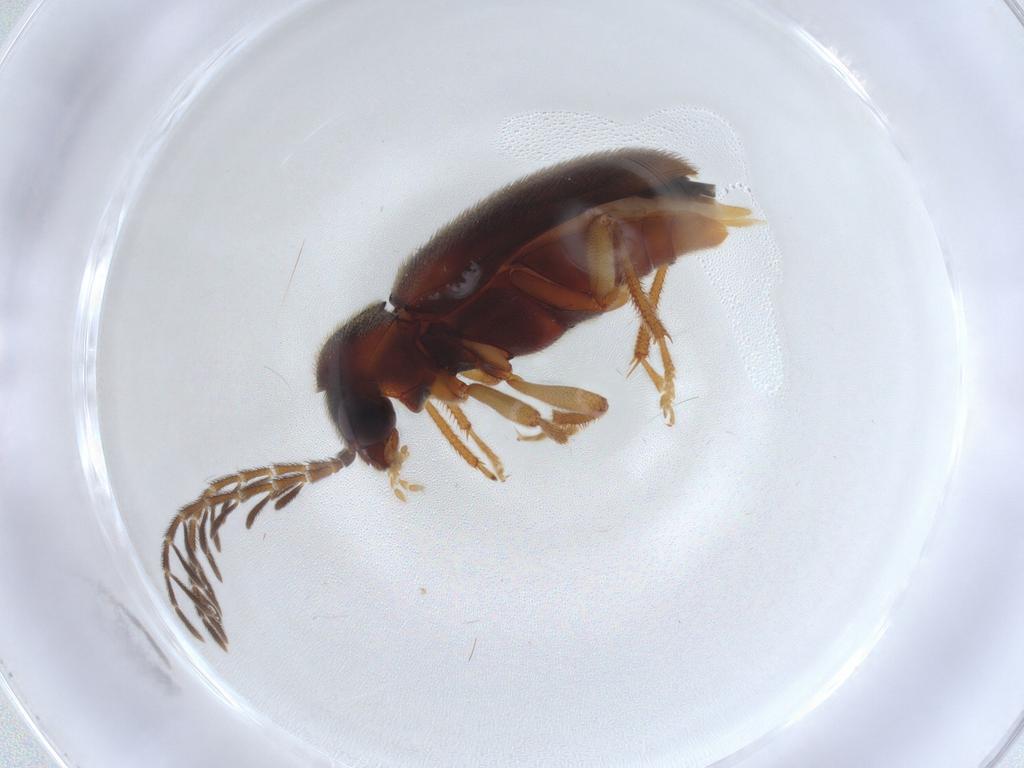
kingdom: Animalia
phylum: Arthropoda
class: Insecta
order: Coleoptera
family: Ptilodactylidae
